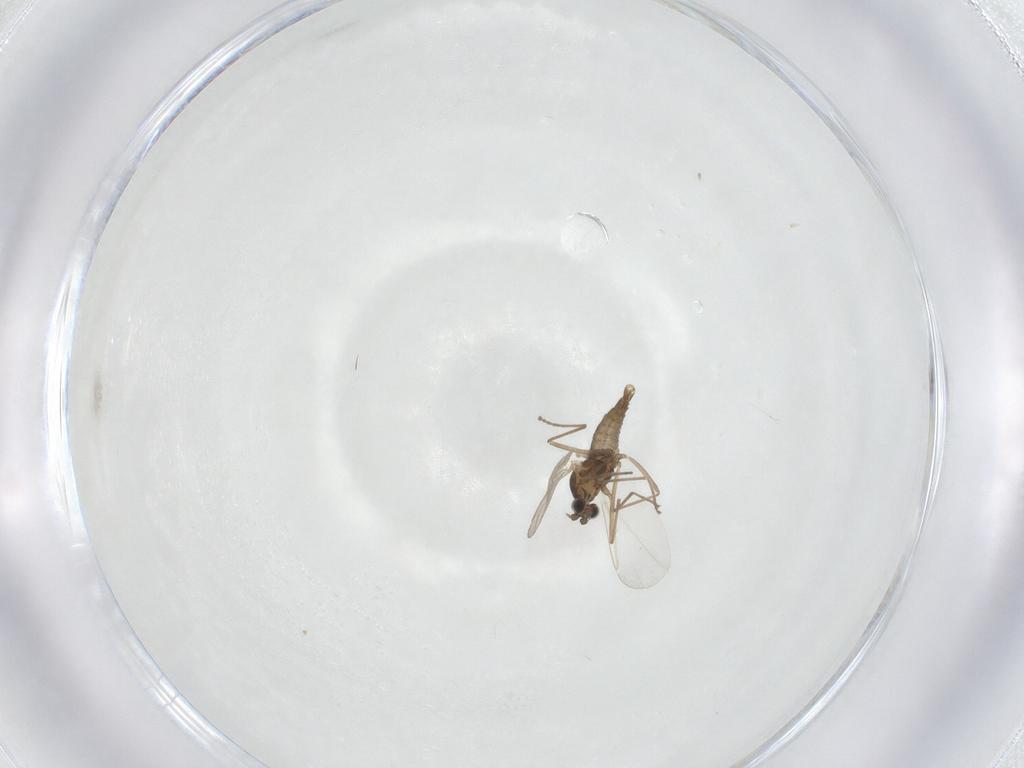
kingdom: Animalia
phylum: Arthropoda
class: Insecta
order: Diptera
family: Cecidomyiidae
